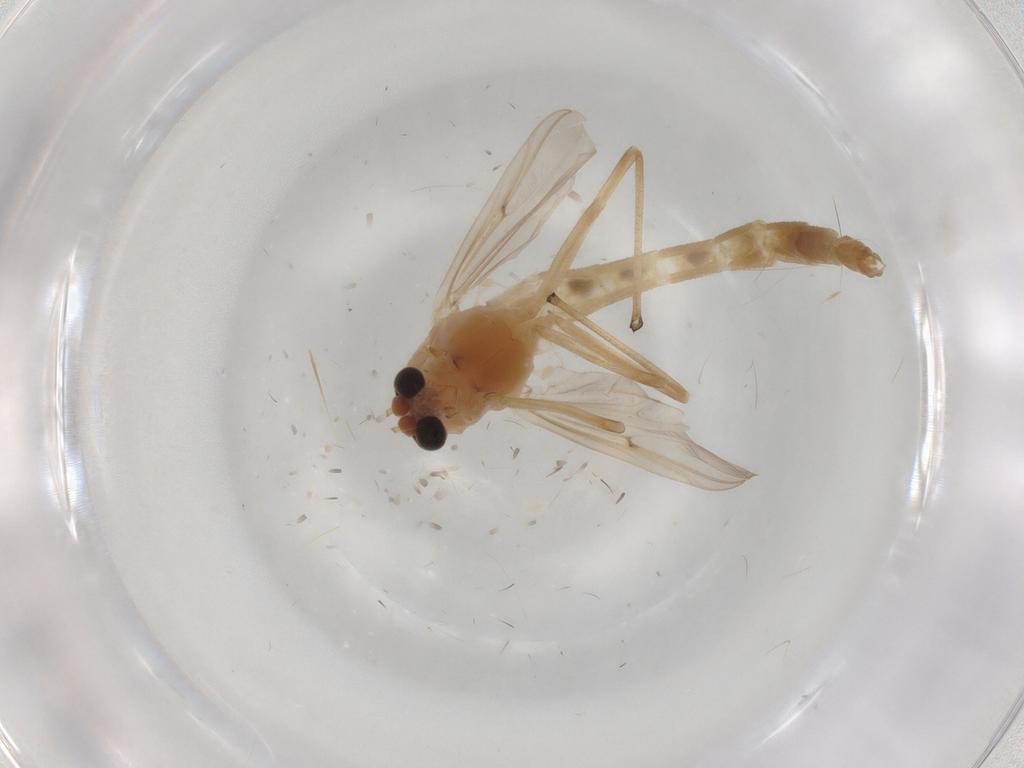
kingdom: Animalia
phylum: Arthropoda
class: Insecta
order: Diptera
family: Chironomidae
